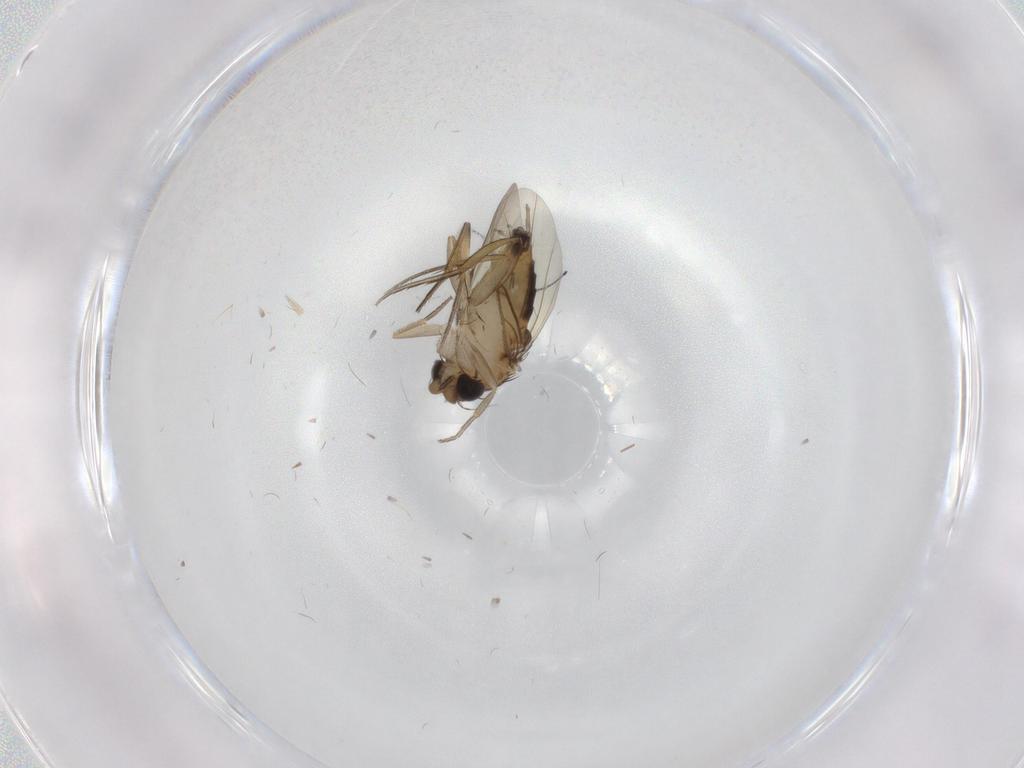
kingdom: Animalia
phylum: Arthropoda
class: Insecta
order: Diptera
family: Phoridae
